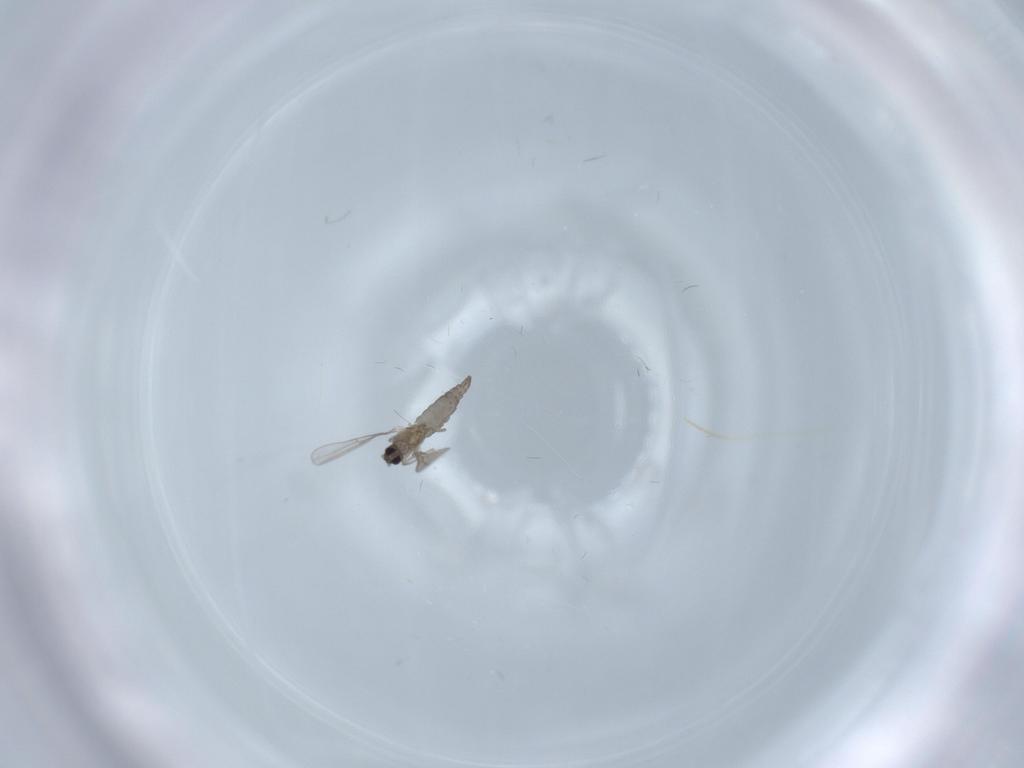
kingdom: Animalia
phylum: Arthropoda
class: Insecta
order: Diptera
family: Cecidomyiidae
